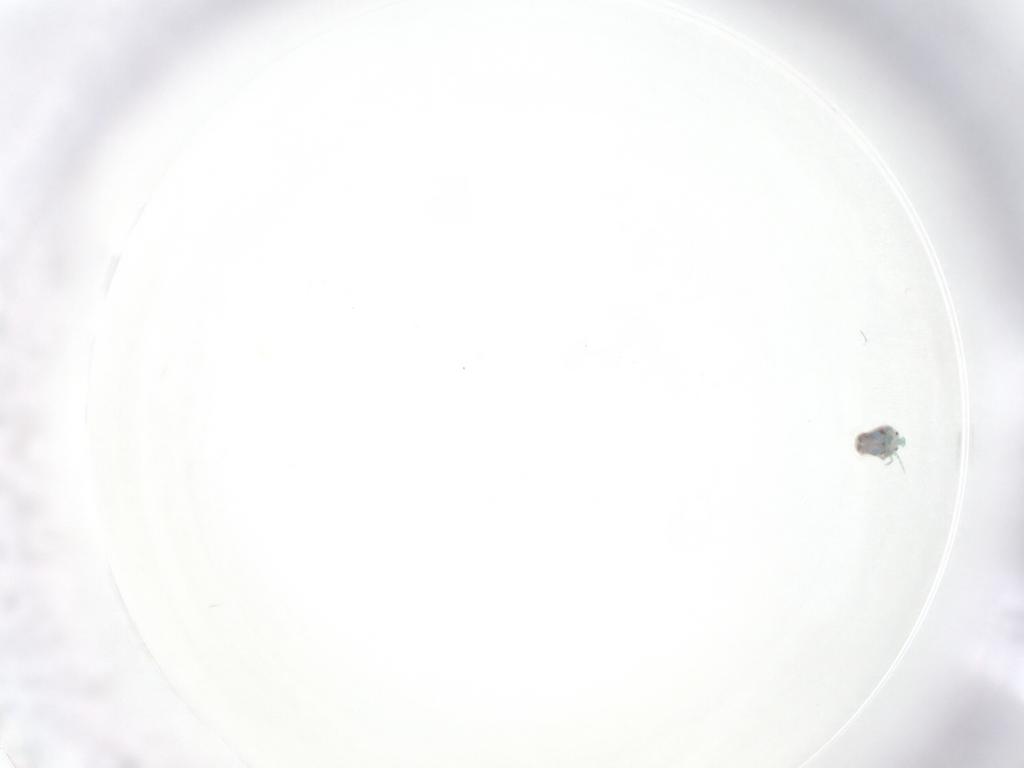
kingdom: Animalia
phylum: Arthropoda
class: Arachnida
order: Trombidiformes
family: Arrenuridae
